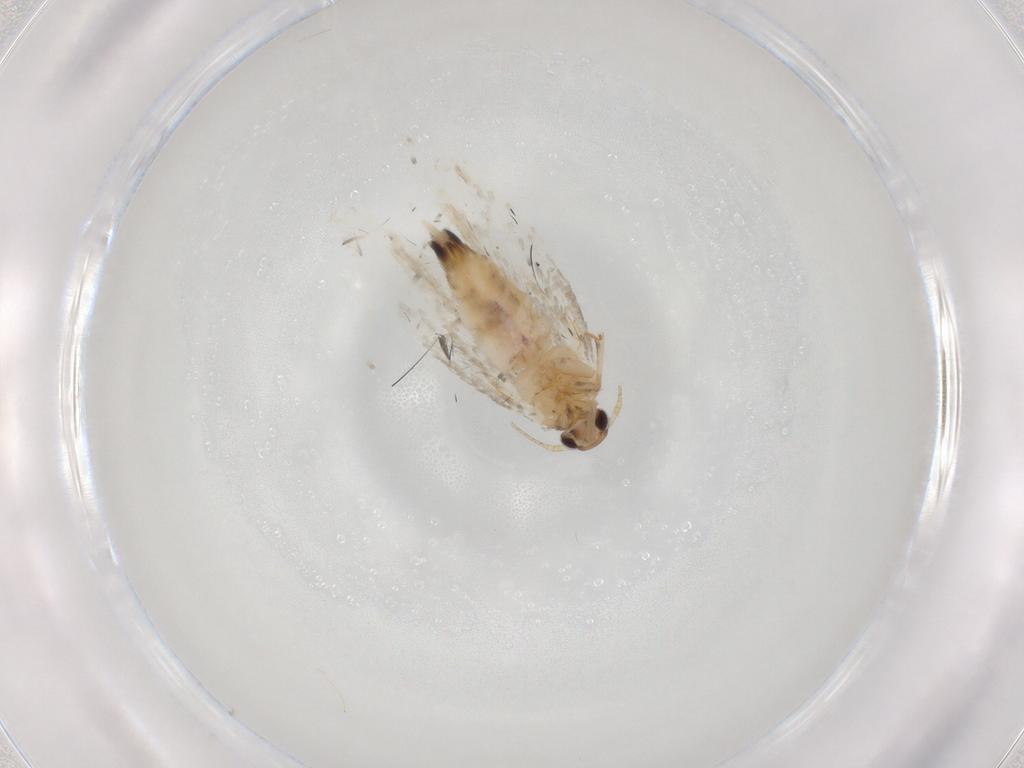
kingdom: Animalia
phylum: Arthropoda
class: Insecta
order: Lepidoptera
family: Gelechiidae
